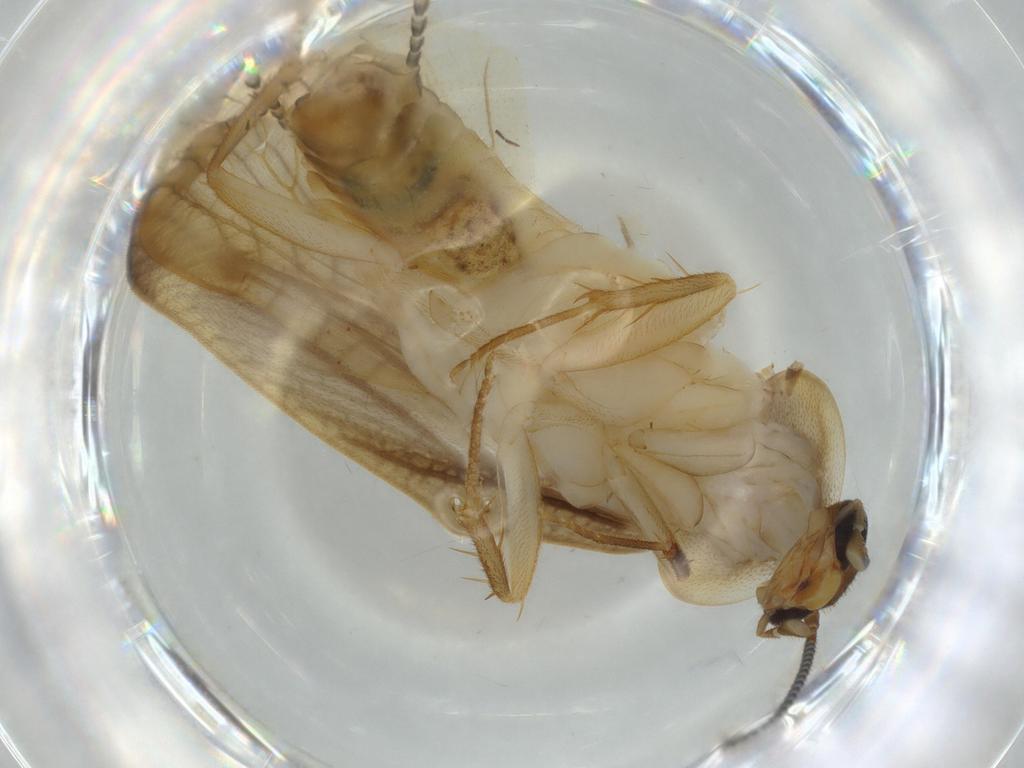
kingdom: Animalia
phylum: Arthropoda
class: Insecta
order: Blattodea
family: Ectobiidae
